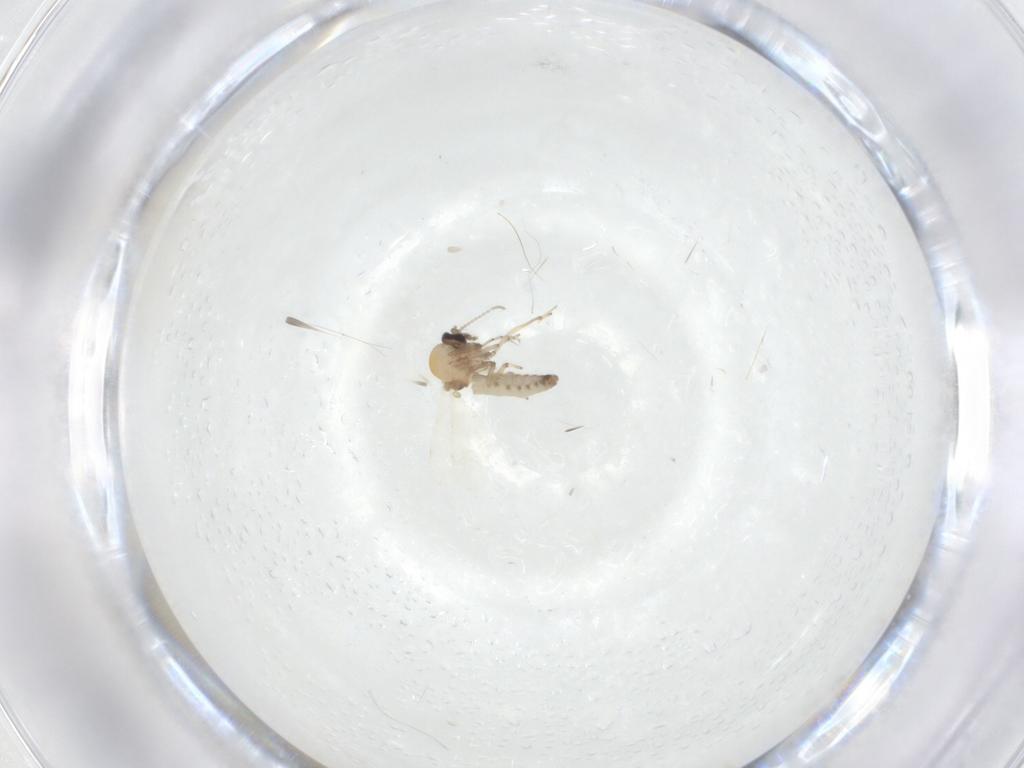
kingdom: Animalia
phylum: Arthropoda
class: Insecta
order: Diptera
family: Ceratopogonidae
